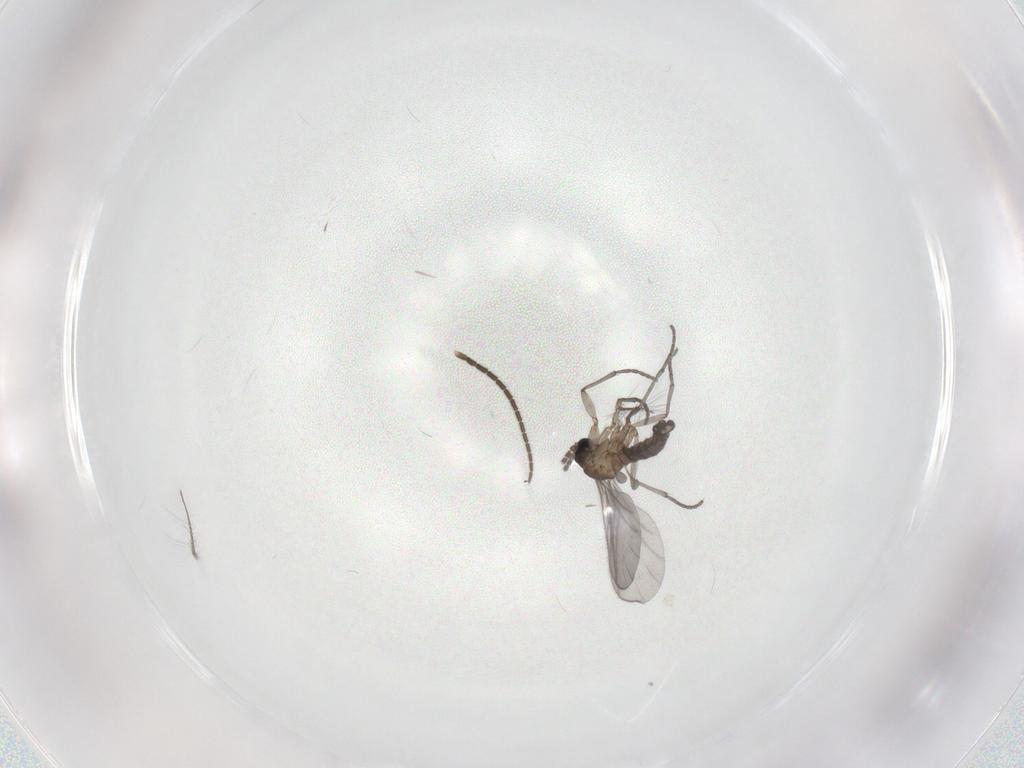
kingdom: Animalia
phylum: Arthropoda
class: Insecta
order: Diptera
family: Sciaridae
